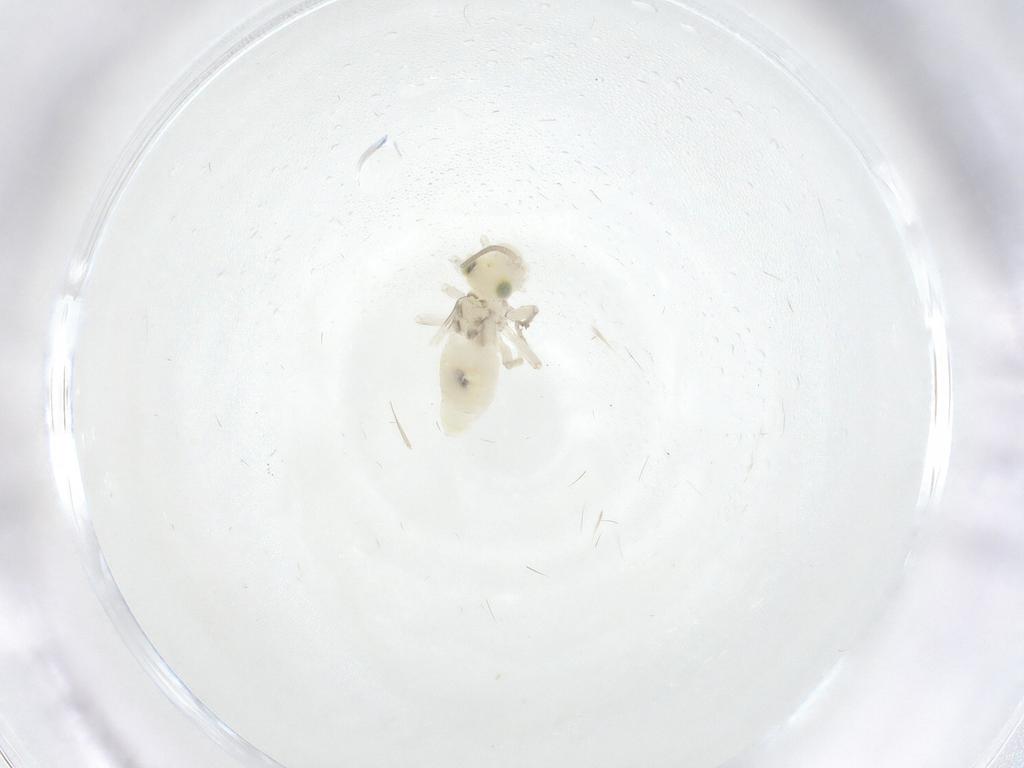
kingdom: Animalia
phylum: Arthropoda
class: Insecta
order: Psocodea
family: Caeciliusidae
